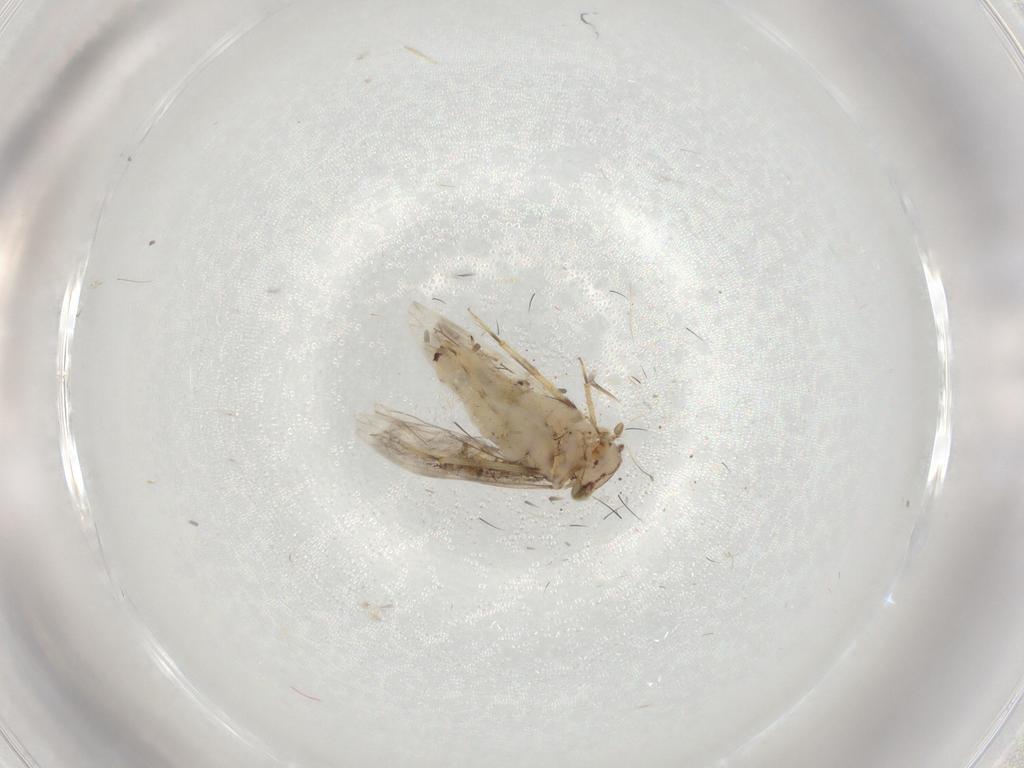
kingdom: Animalia
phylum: Arthropoda
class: Insecta
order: Psocodea
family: Lepidopsocidae
